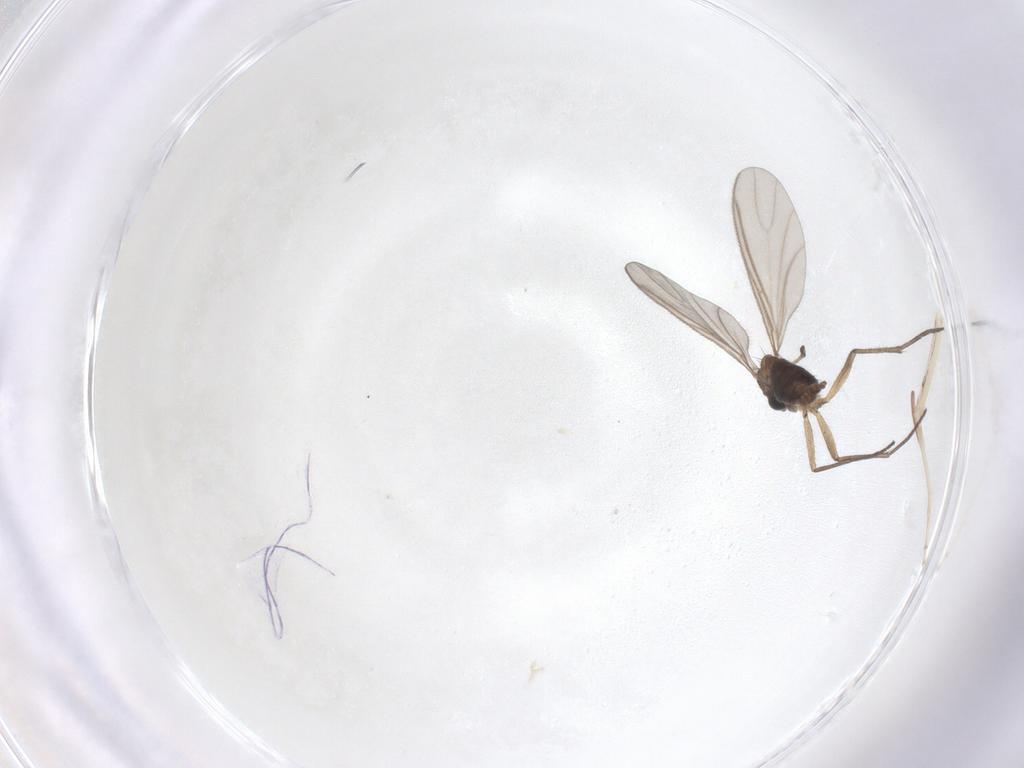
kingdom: Animalia
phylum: Arthropoda
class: Insecta
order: Diptera
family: Sciaridae
